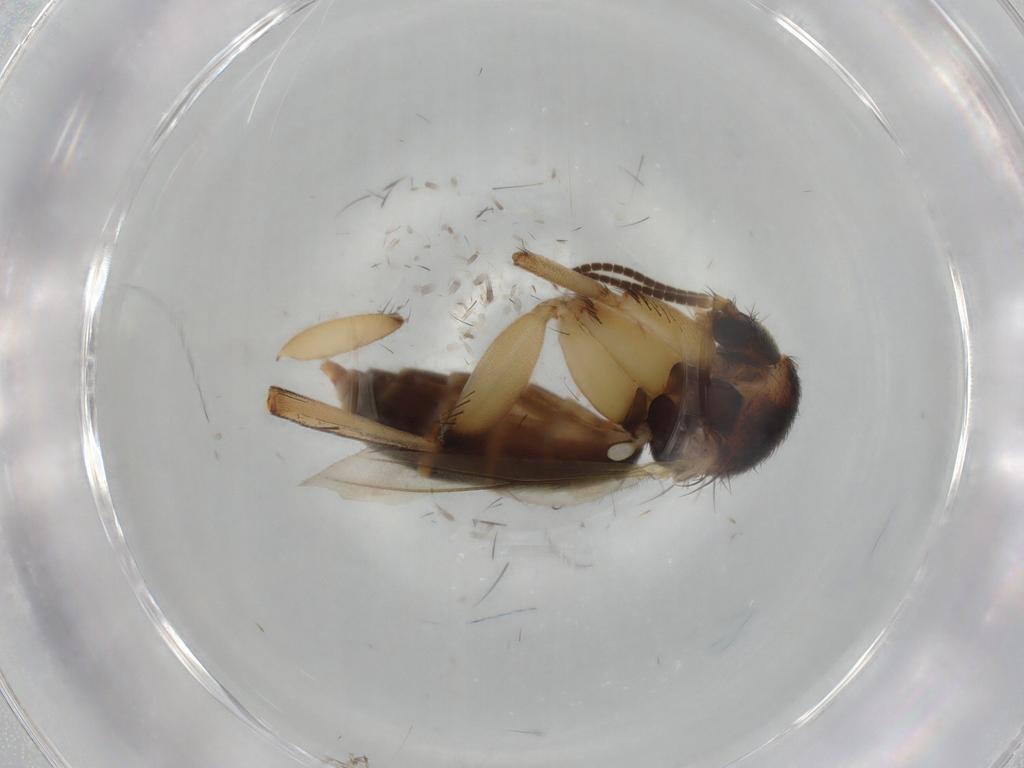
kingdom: Animalia
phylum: Arthropoda
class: Insecta
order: Diptera
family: Mycetophilidae
